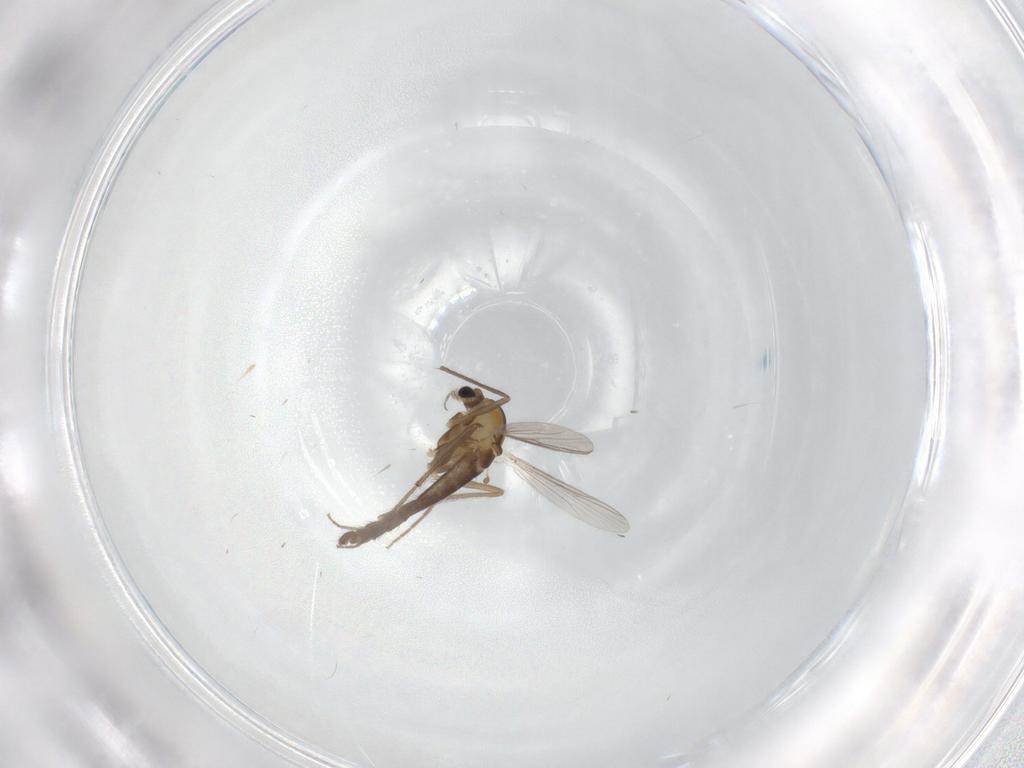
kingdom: Animalia
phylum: Arthropoda
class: Insecta
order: Diptera
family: Chironomidae
